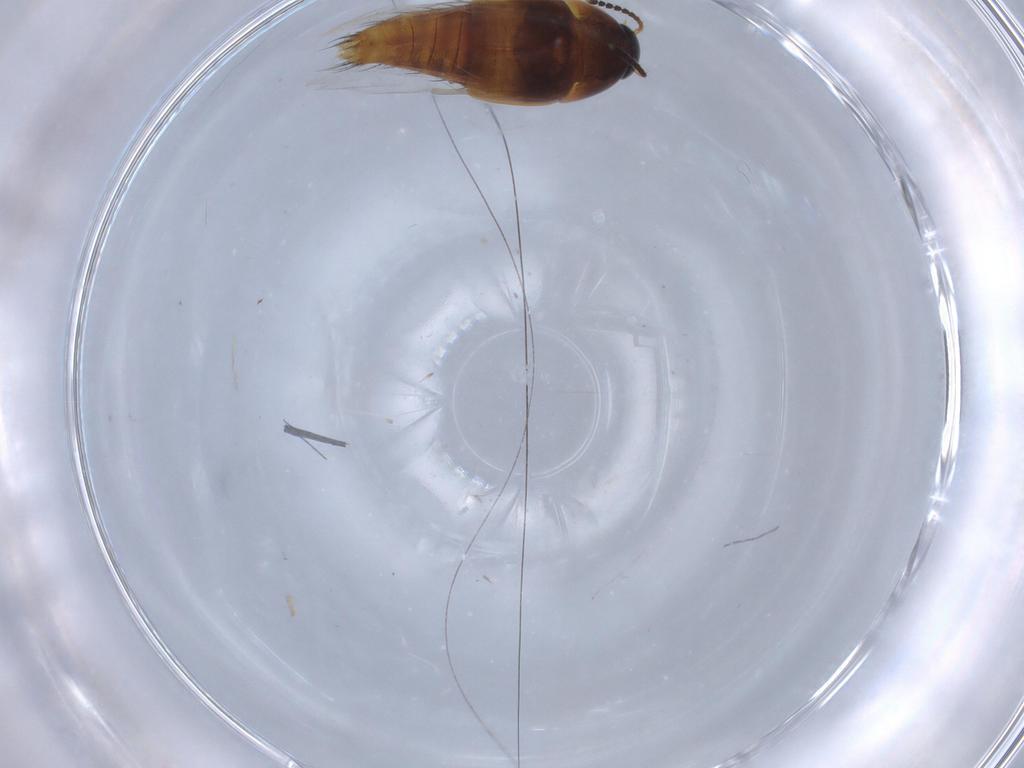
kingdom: Animalia
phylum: Arthropoda
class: Insecta
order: Coleoptera
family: Staphylinidae
